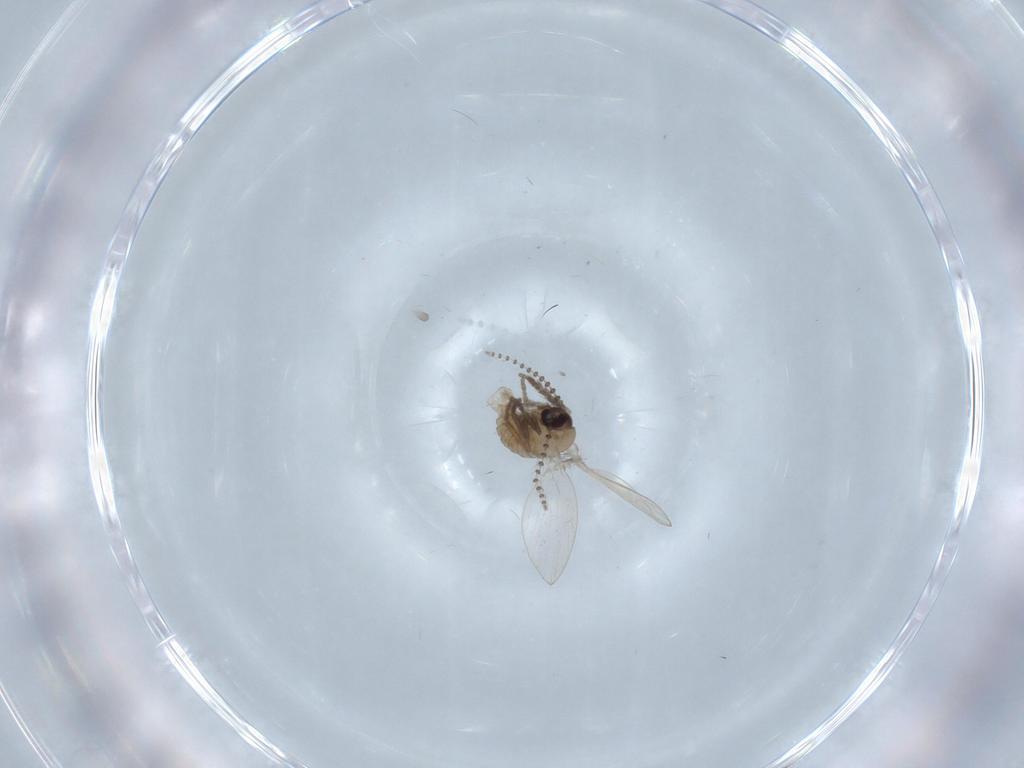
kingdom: Animalia
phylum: Arthropoda
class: Insecta
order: Diptera
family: Psychodidae
